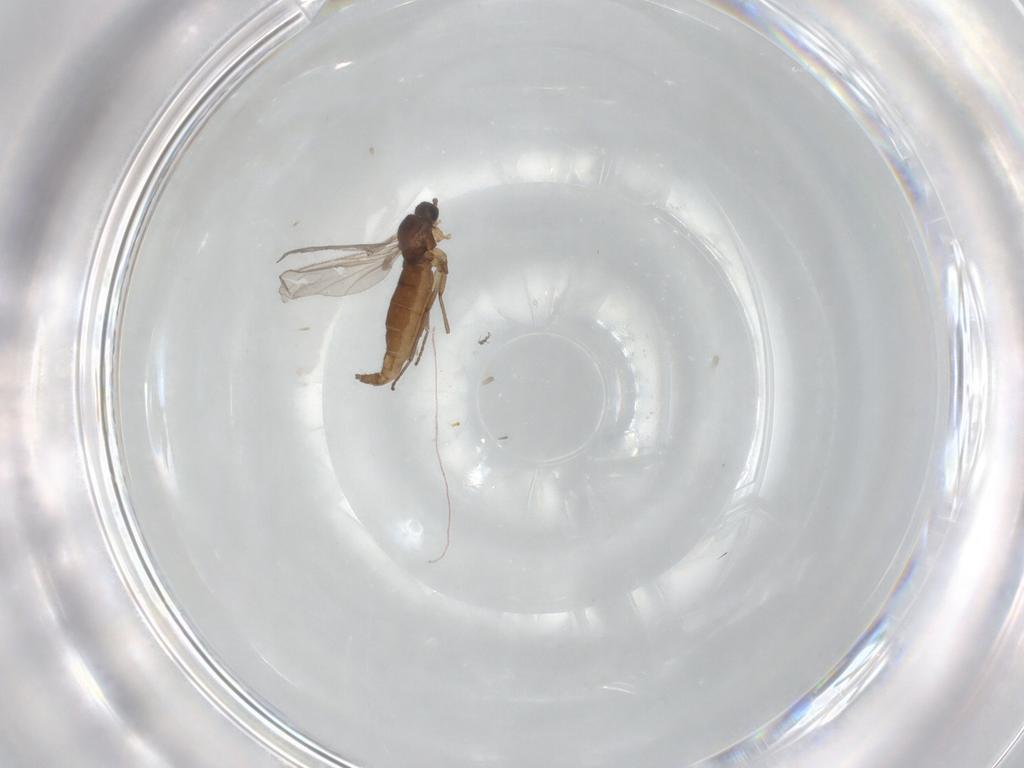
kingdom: Animalia
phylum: Arthropoda
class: Insecta
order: Diptera
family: Sciaridae
